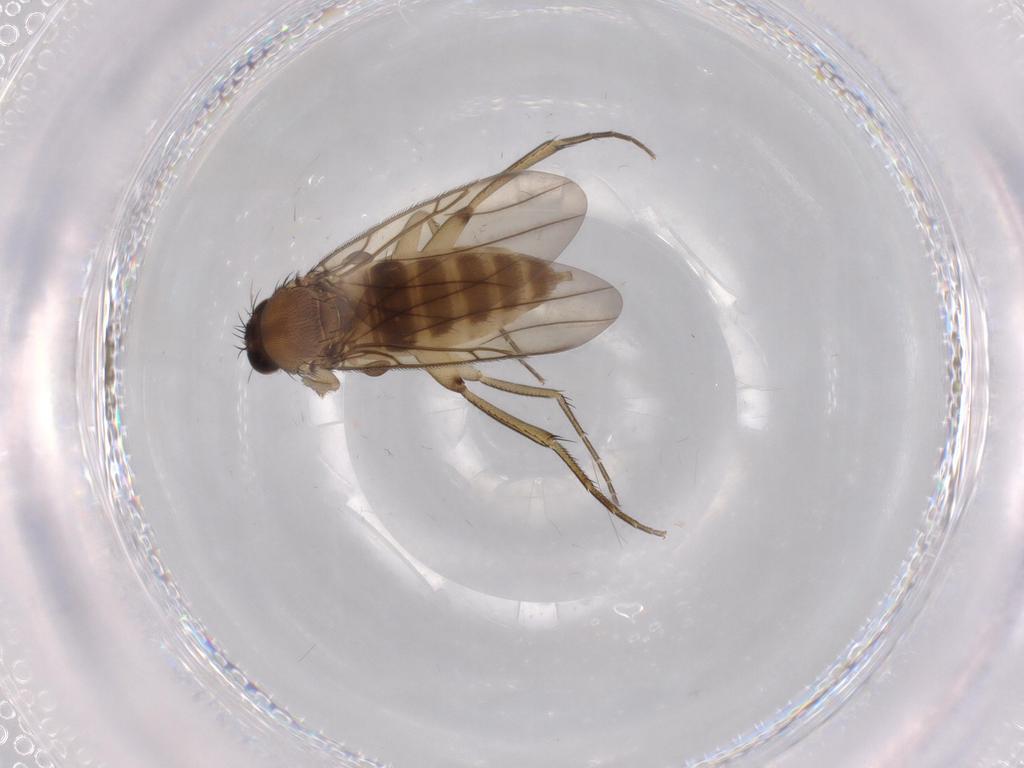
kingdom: Animalia
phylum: Arthropoda
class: Insecta
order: Diptera
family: Phoridae
